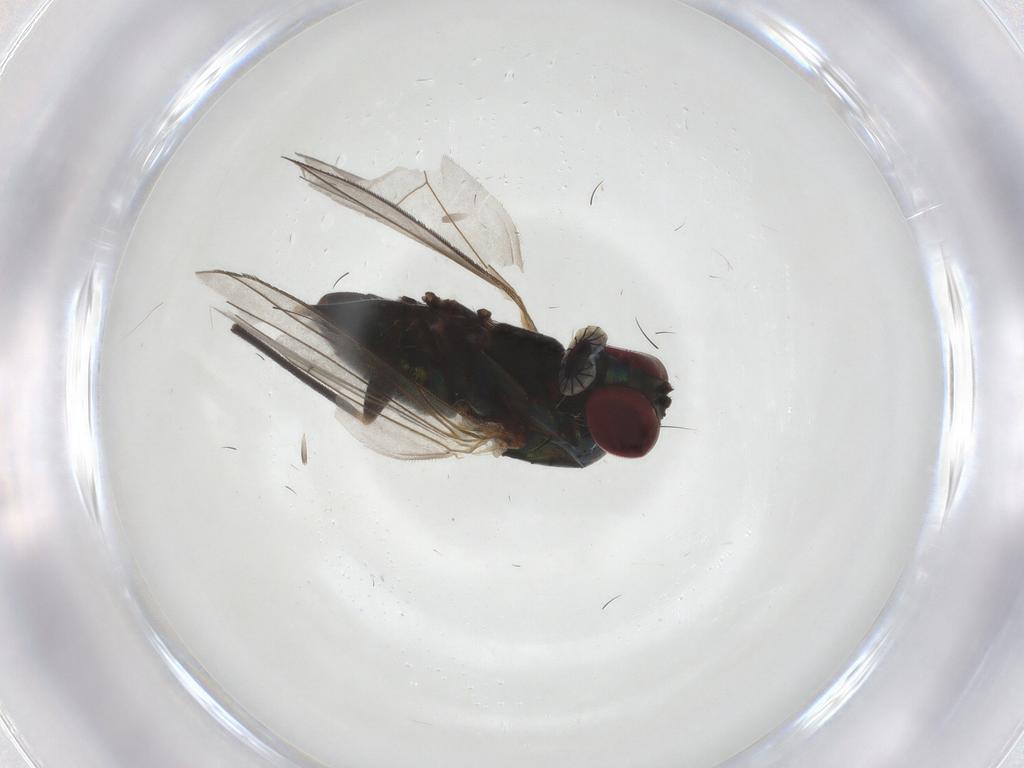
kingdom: Animalia
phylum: Arthropoda
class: Insecta
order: Diptera
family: Dolichopodidae
